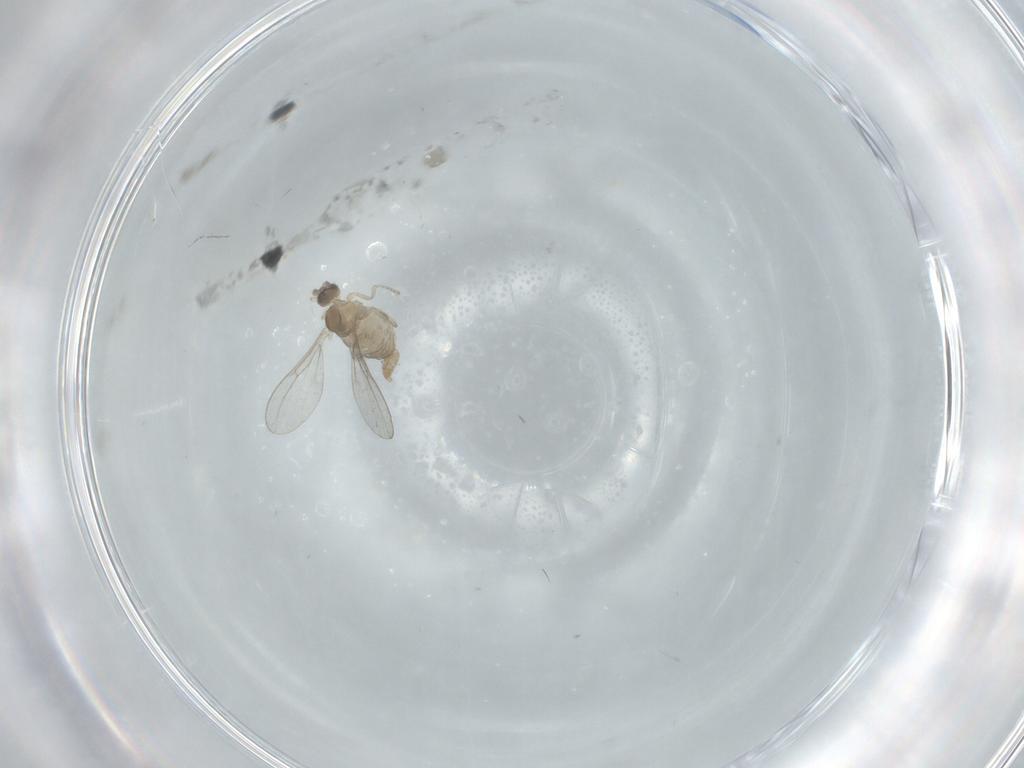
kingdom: Animalia
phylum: Arthropoda
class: Insecta
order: Diptera
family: Cecidomyiidae
